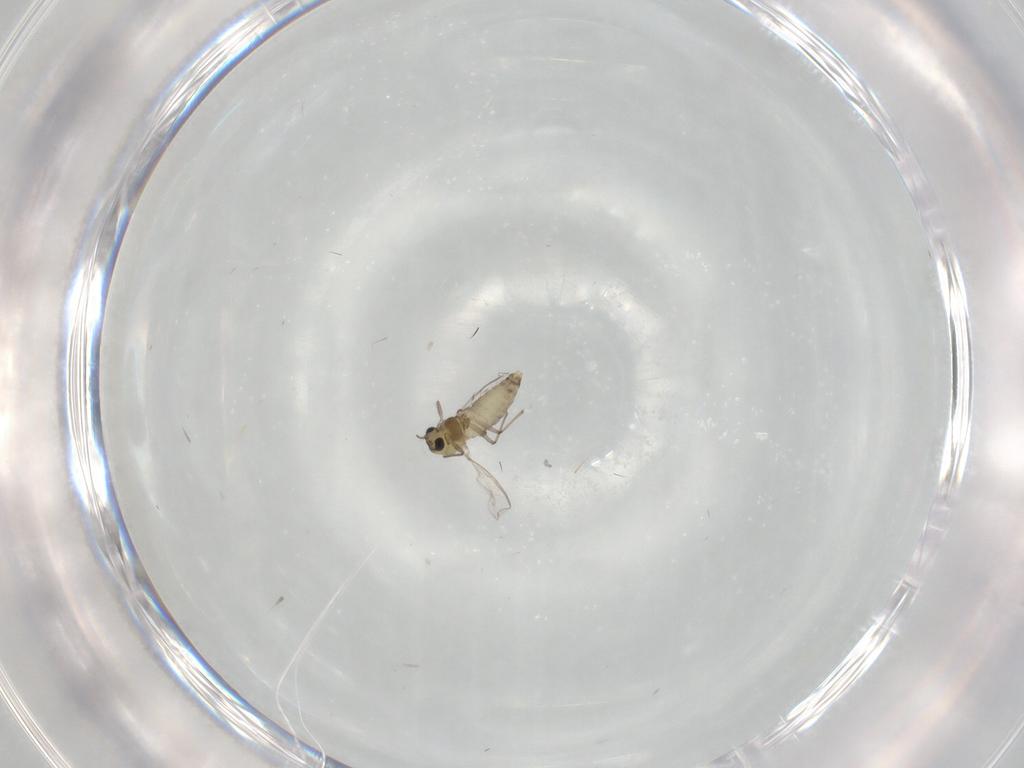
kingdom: Animalia
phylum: Arthropoda
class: Insecta
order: Diptera
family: Chironomidae
